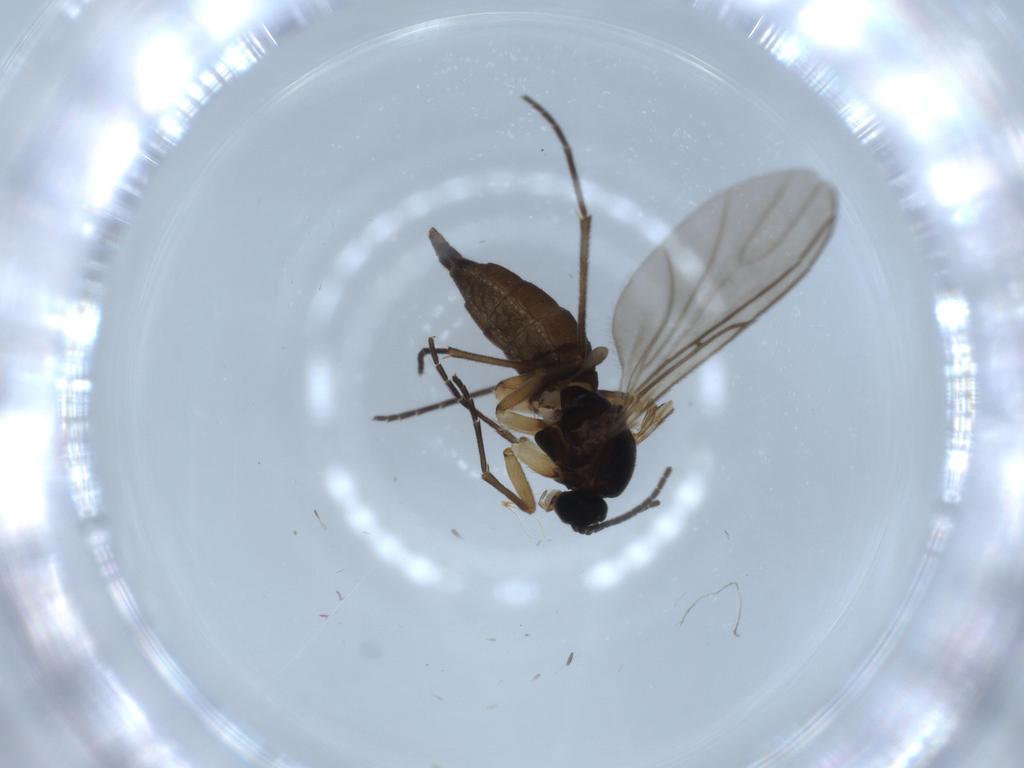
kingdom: Animalia
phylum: Arthropoda
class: Insecta
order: Diptera
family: Sciaridae
